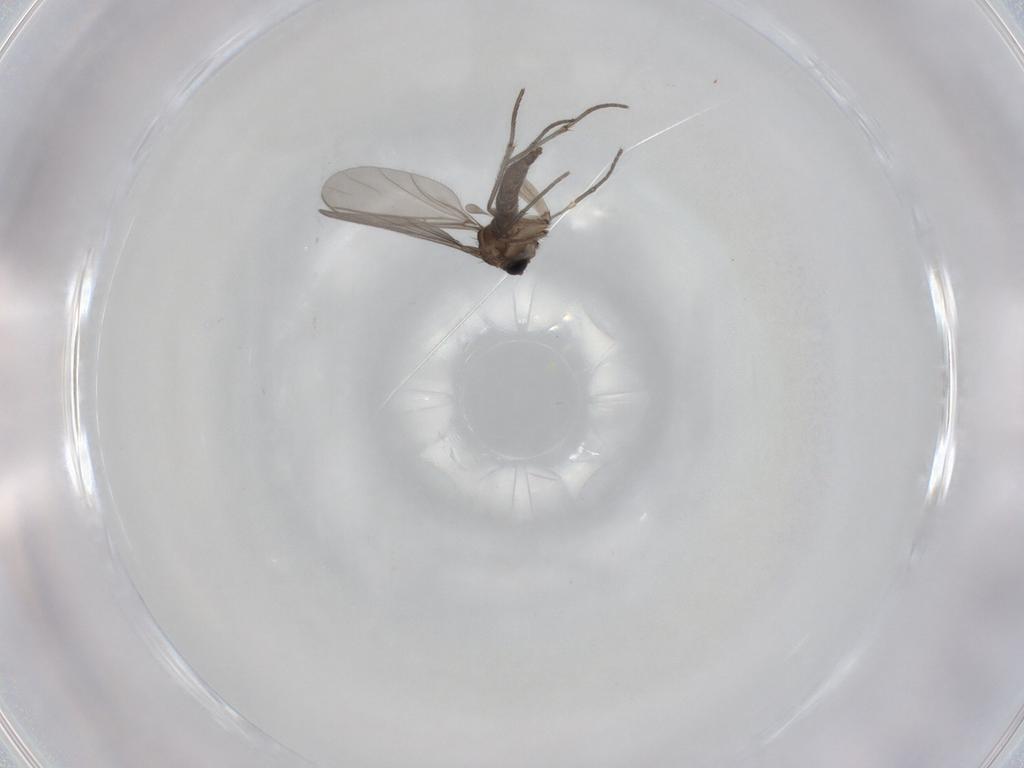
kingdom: Animalia
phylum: Arthropoda
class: Insecta
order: Diptera
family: Sciaridae
